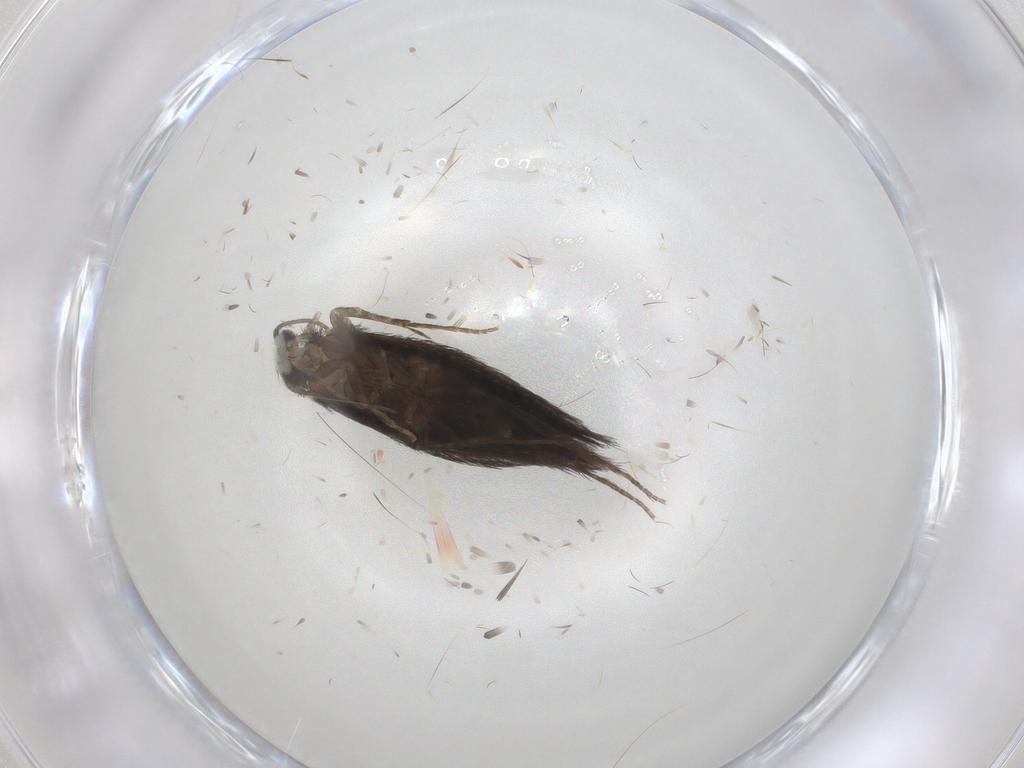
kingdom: Animalia
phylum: Arthropoda
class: Insecta
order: Trichoptera
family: Hydroptilidae
